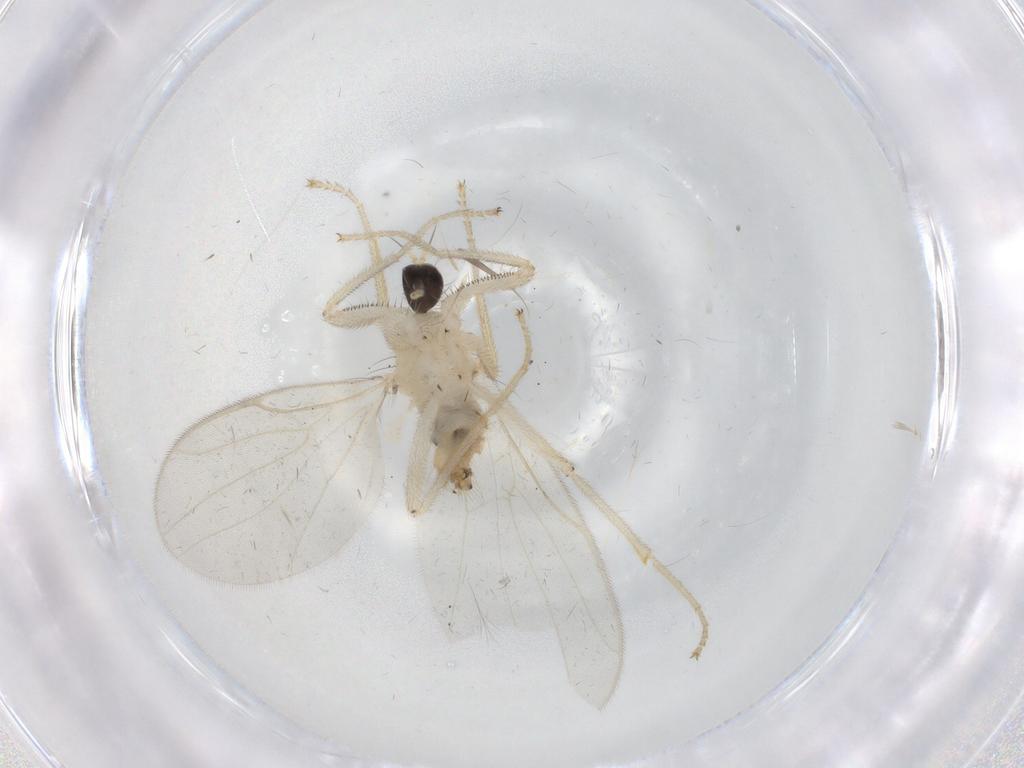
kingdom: Animalia
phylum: Arthropoda
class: Insecta
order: Diptera
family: Hybotidae
